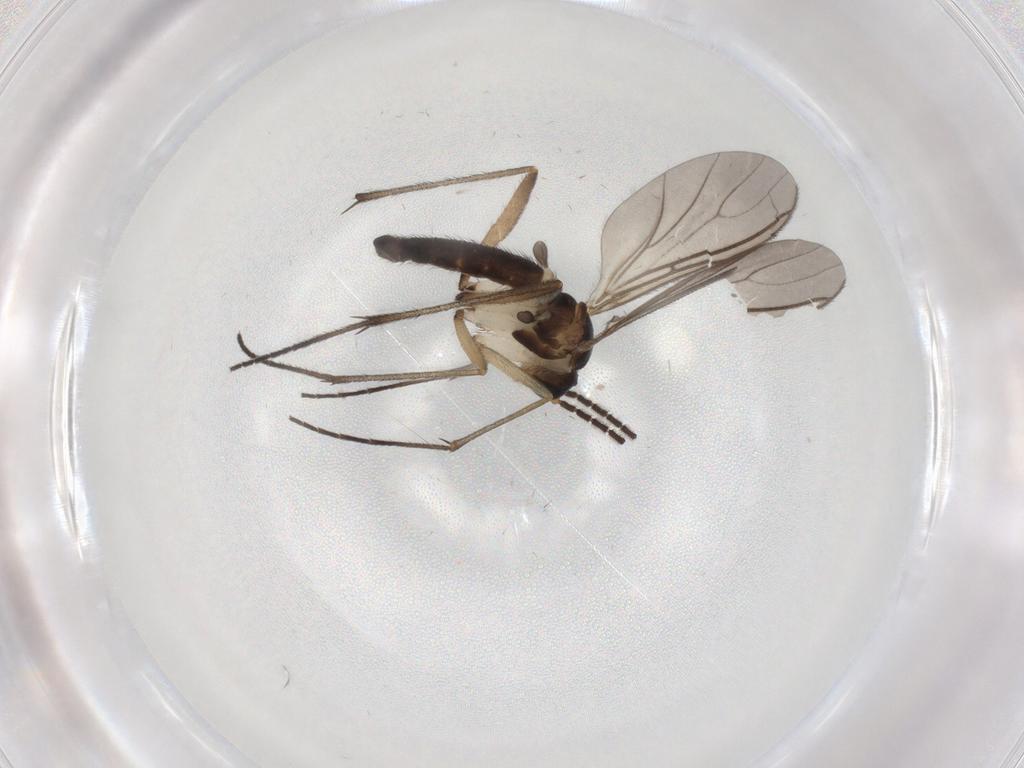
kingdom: Animalia
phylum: Arthropoda
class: Insecta
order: Diptera
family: Sciaridae
